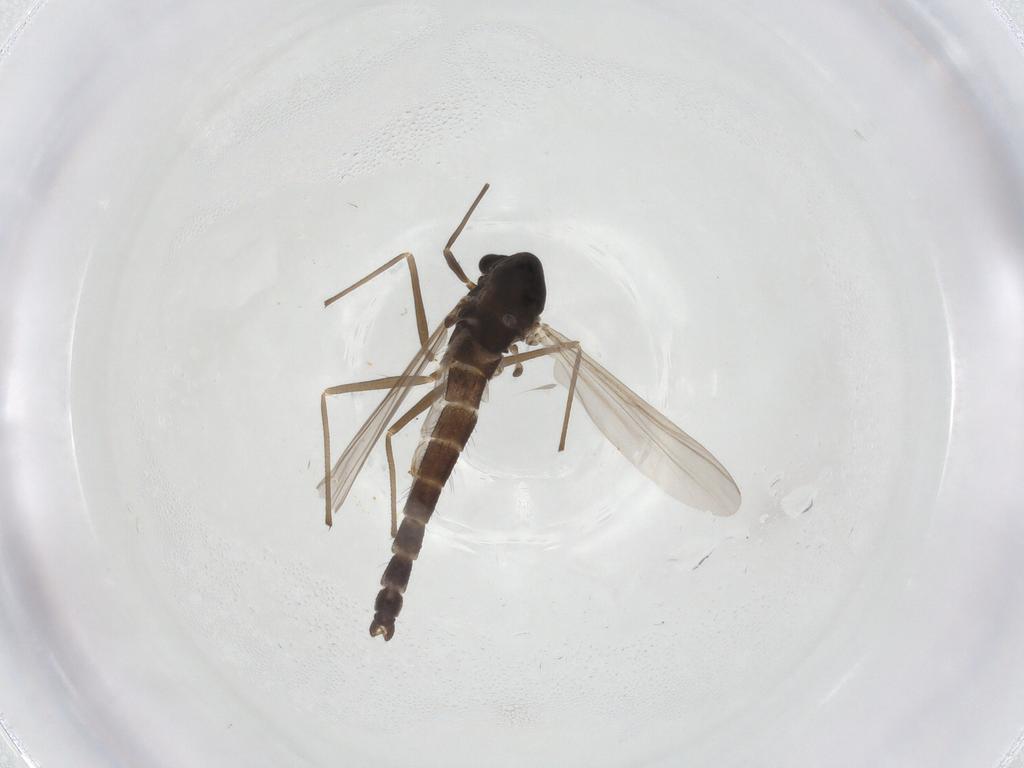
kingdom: Animalia
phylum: Arthropoda
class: Insecta
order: Diptera
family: Chironomidae
